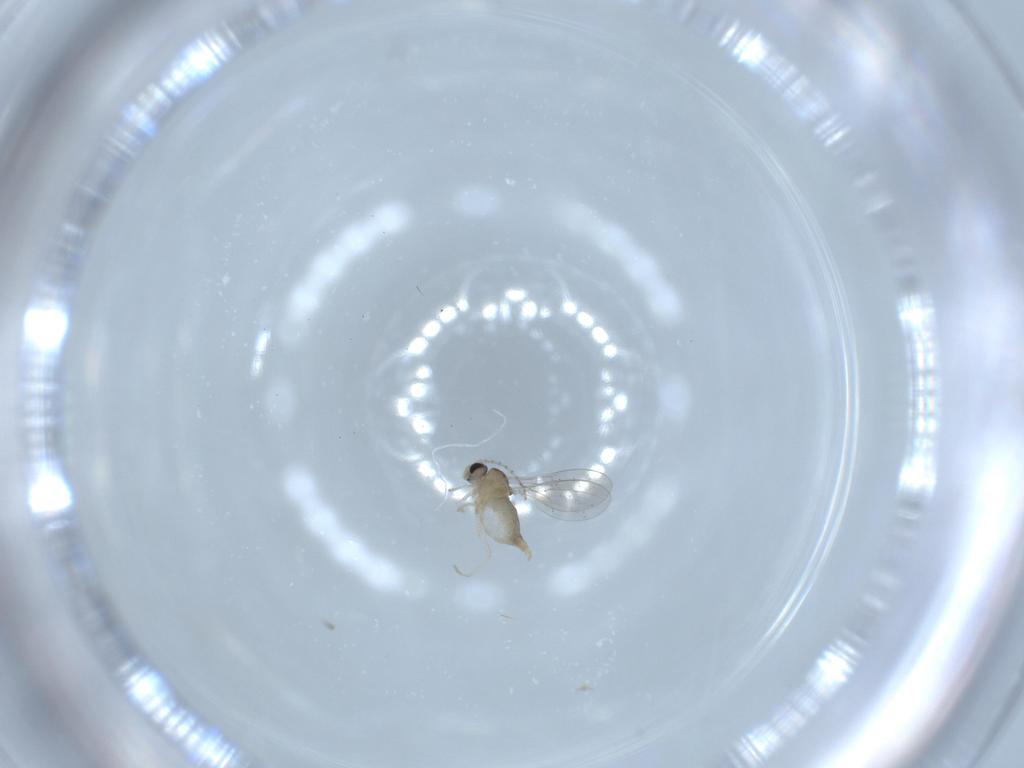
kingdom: Animalia
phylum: Arthropoda
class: Insecta
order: Diptera
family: Cecidomyiidae
